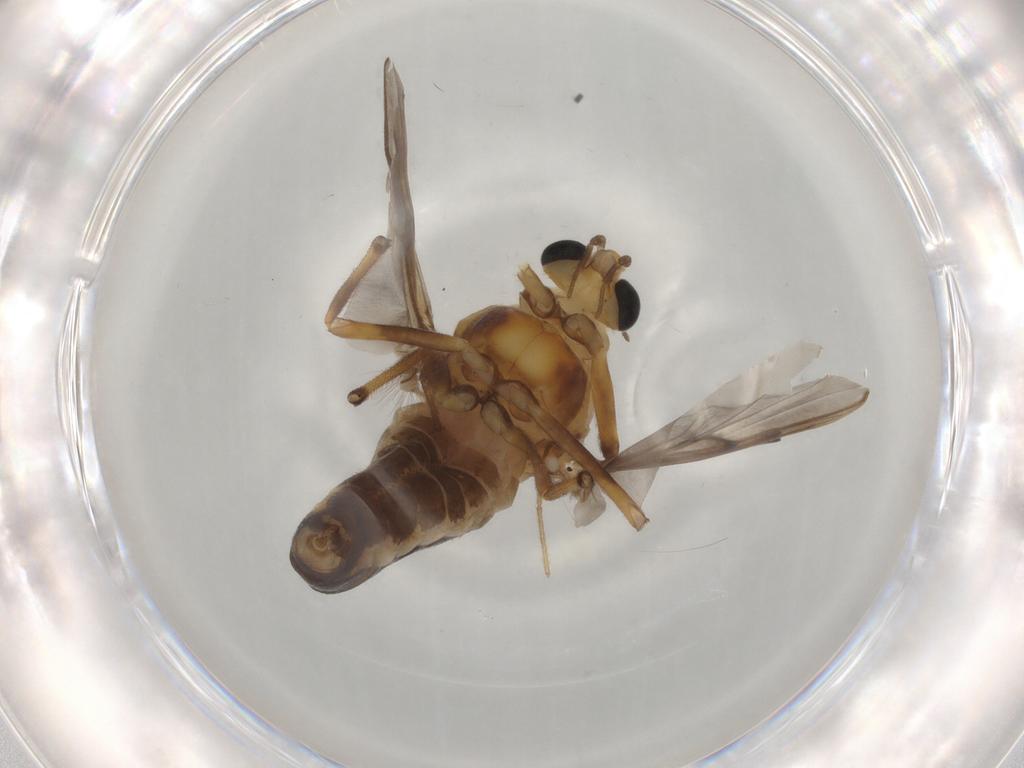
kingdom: Animalia
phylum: Arthropoda
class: Insecta
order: Diptera
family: Chironomidae
